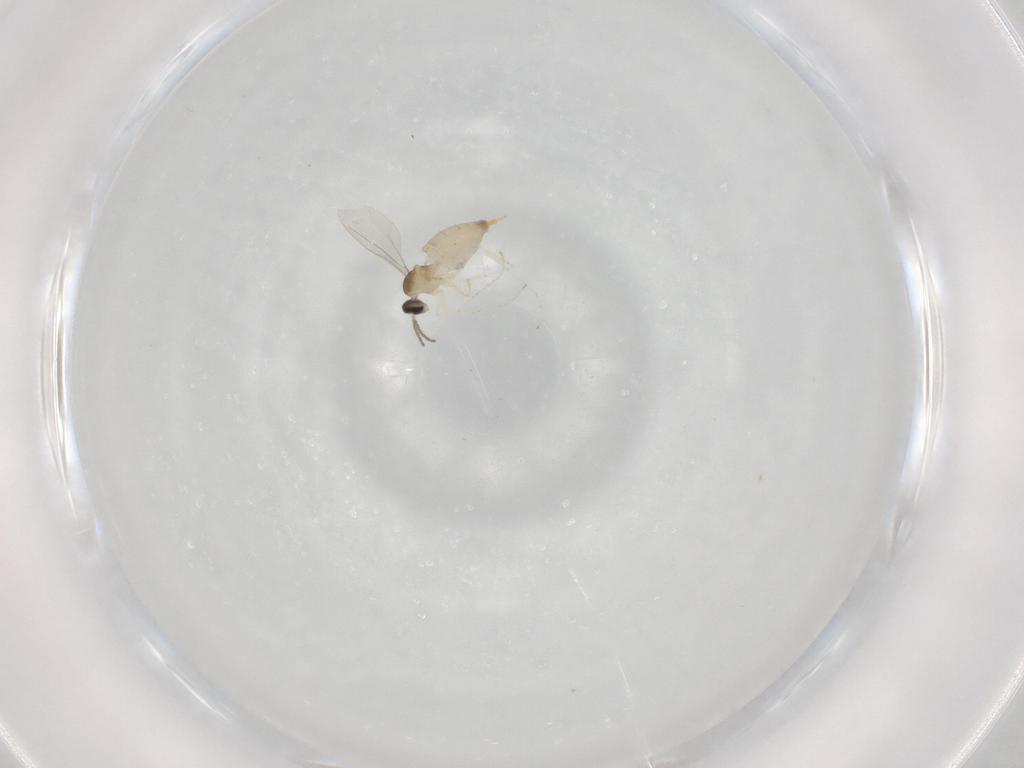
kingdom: Animalia
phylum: Arthropoda
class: Insecta
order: Diptera
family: Cecidomyiidae
